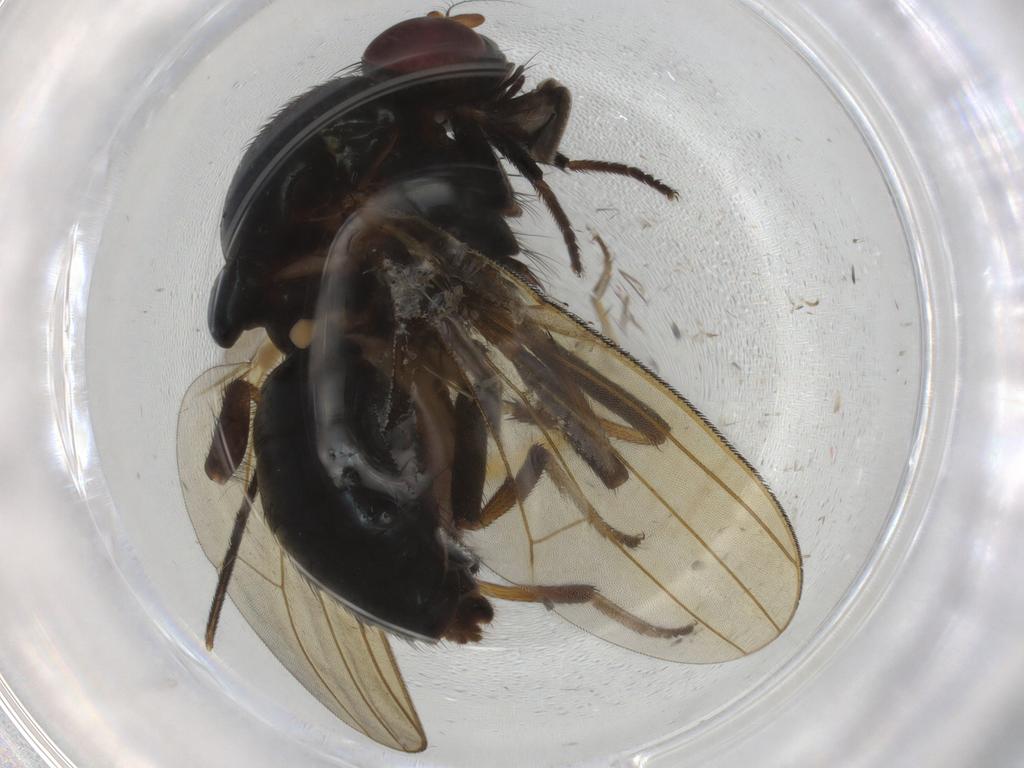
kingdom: Animalia
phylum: Arthropoda
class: Insecta
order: Diptera
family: Lauxaniidae
